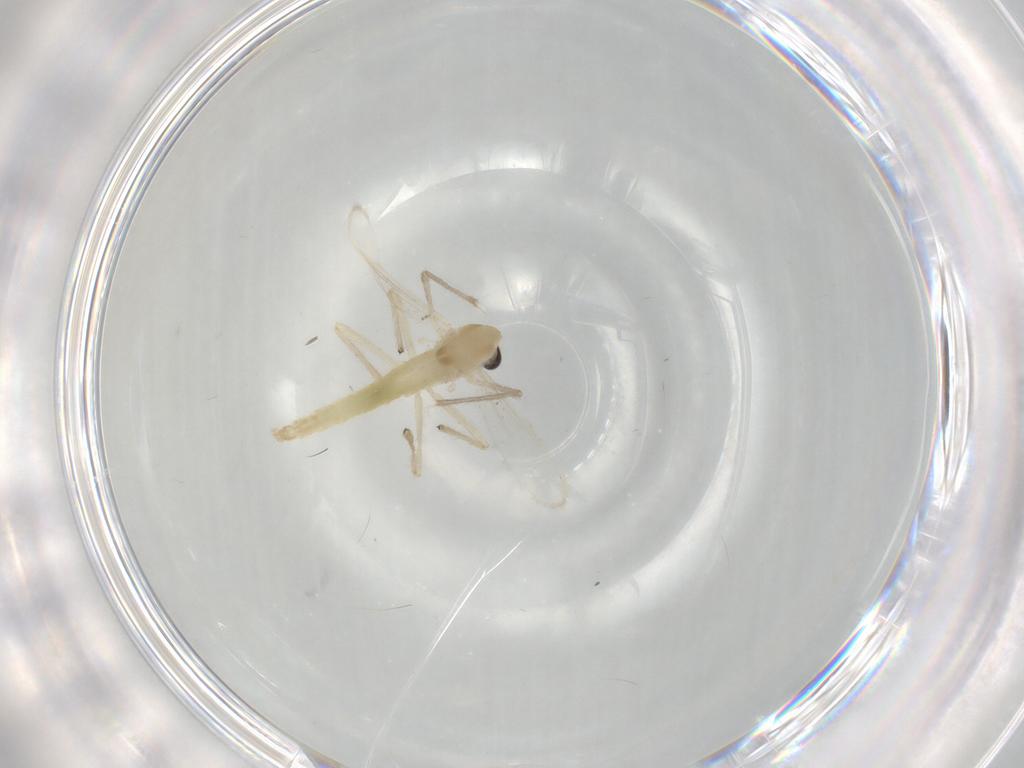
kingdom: Animalia
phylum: Arthropoda
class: Insecta
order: Diptera
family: Chironomidae
